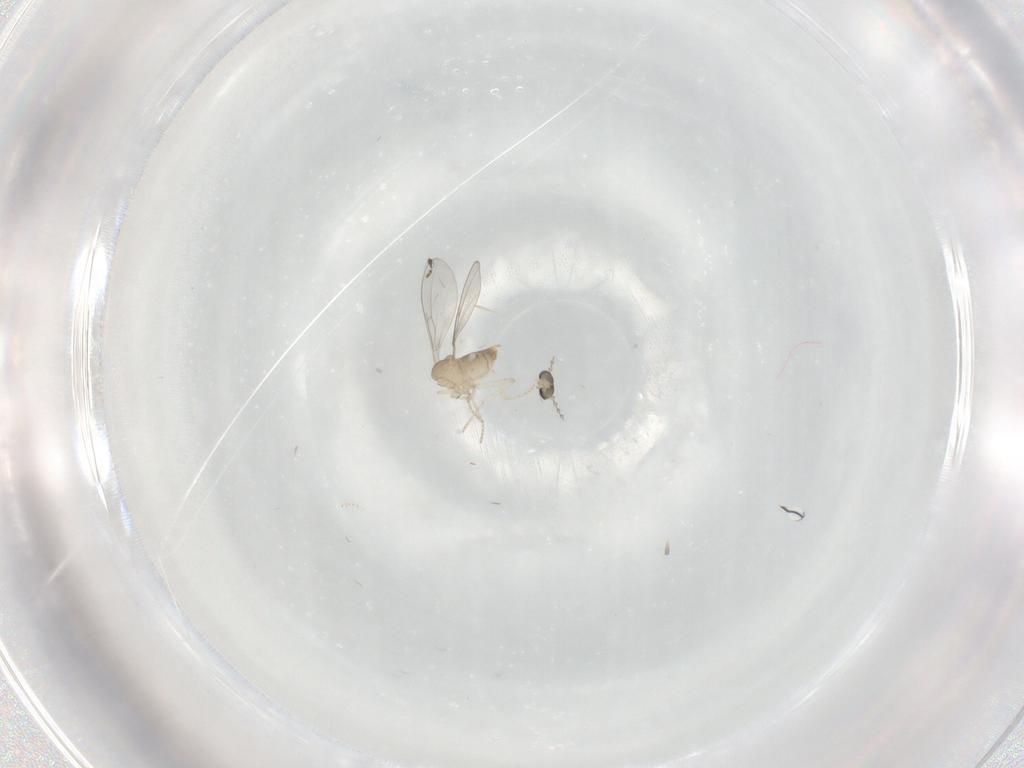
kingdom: Animalia
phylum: Arthropoda
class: Insecta
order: Diptera
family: Cecidomyiidae
